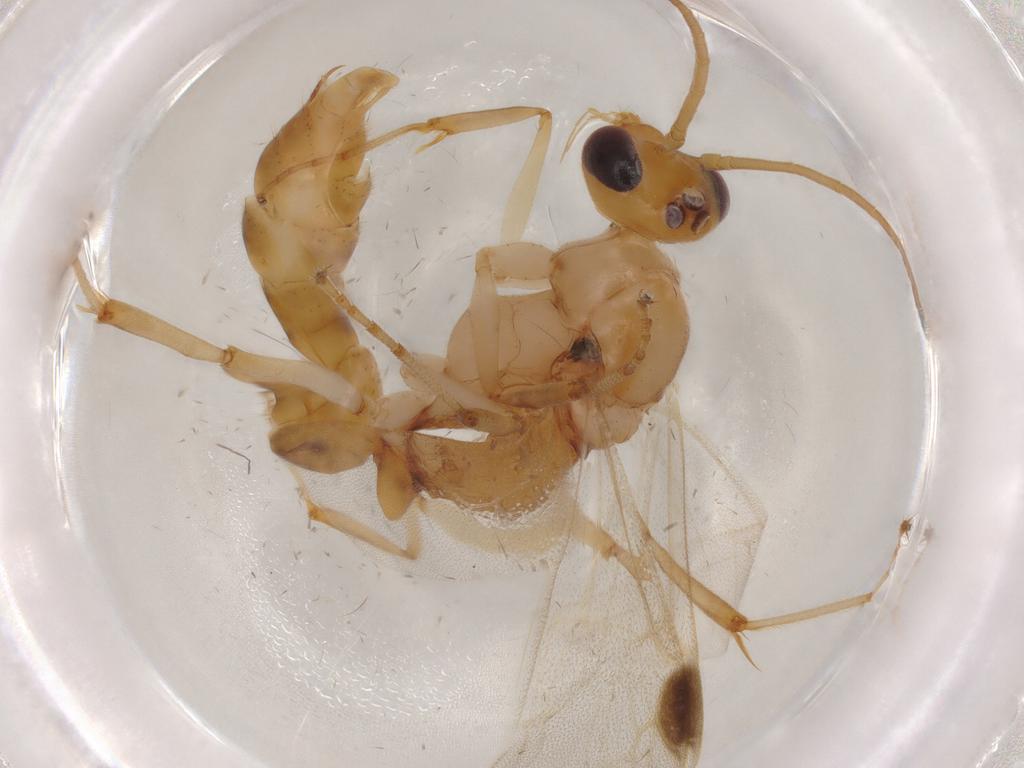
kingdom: Animalia
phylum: Arthropoda
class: Insecta
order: Hymenoptera
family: Formicidae
